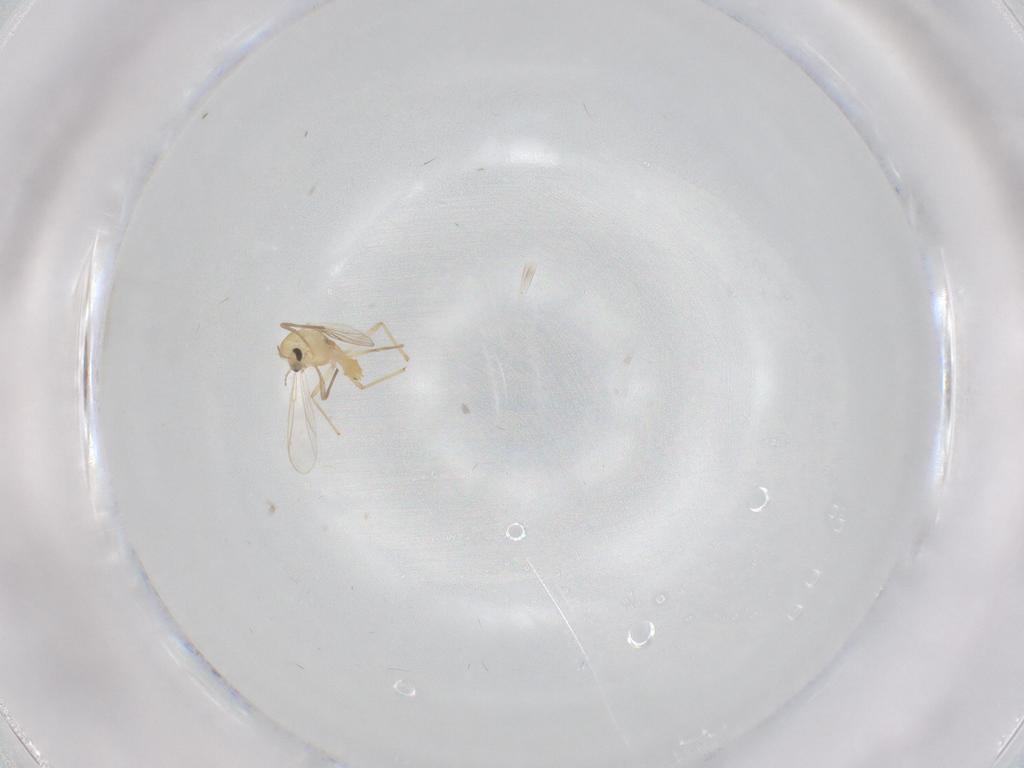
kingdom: Animalia
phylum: Arthropoda
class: Insecta
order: Diptera
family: Chironomidae
